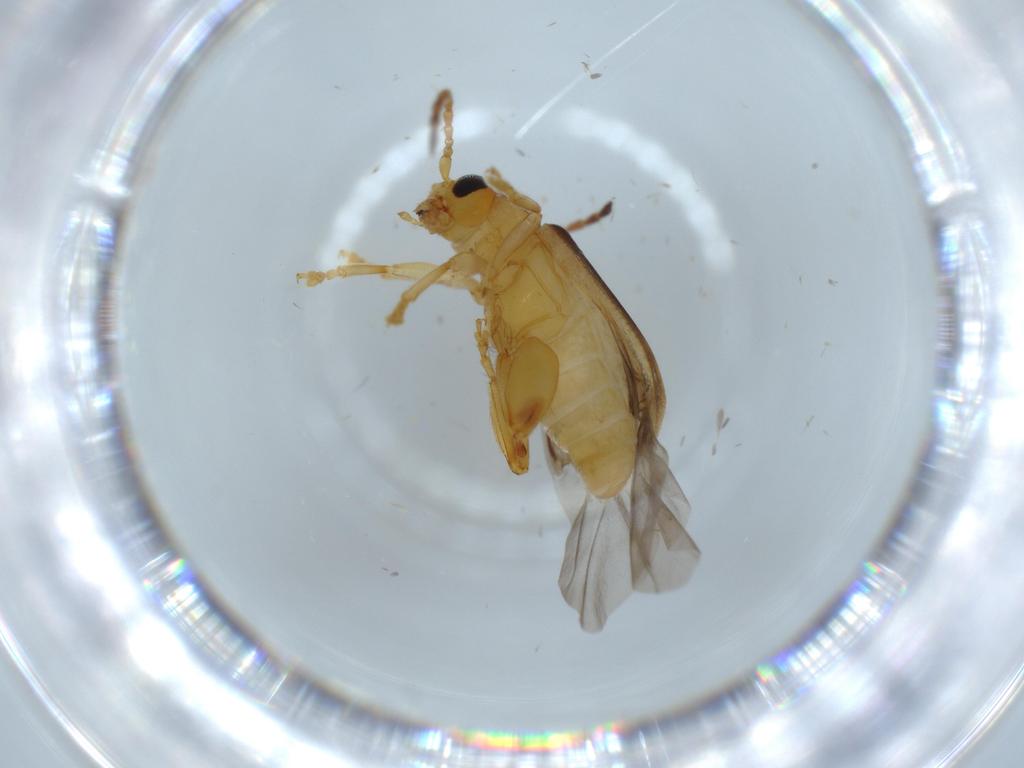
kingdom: Animalia
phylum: Arthropoda
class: Insecta
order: Coleoptera
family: Chrysomelidae
